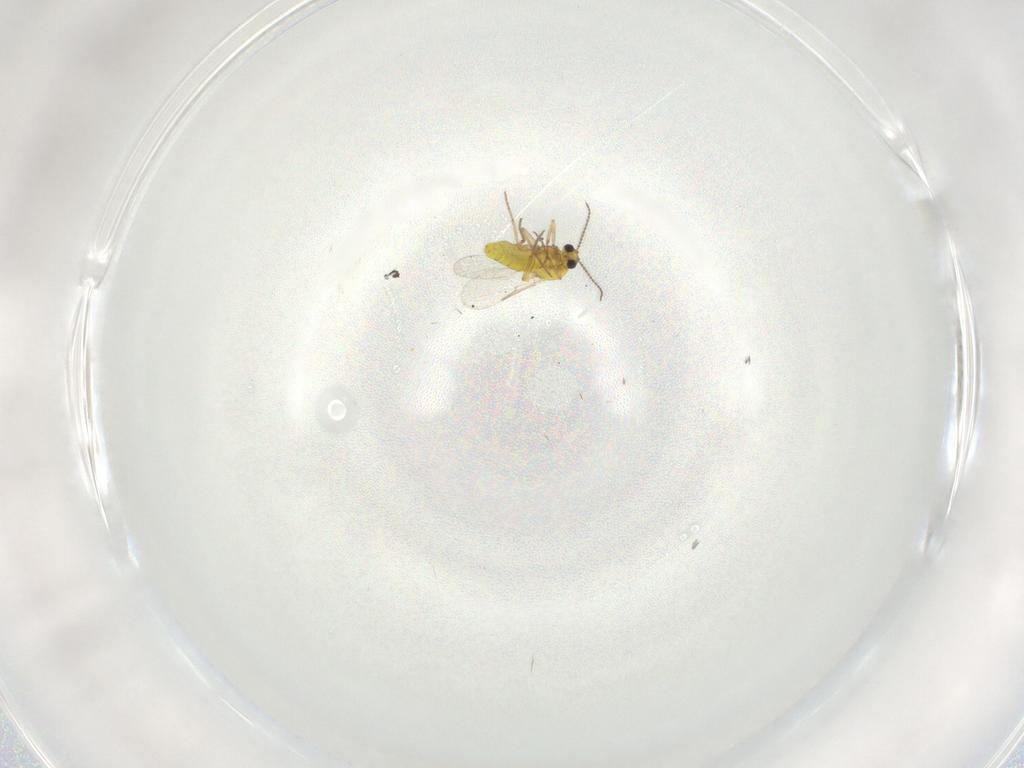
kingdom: Animalia
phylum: Arthropoda
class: Insecta
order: Diptera
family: Ceratopogonidae
